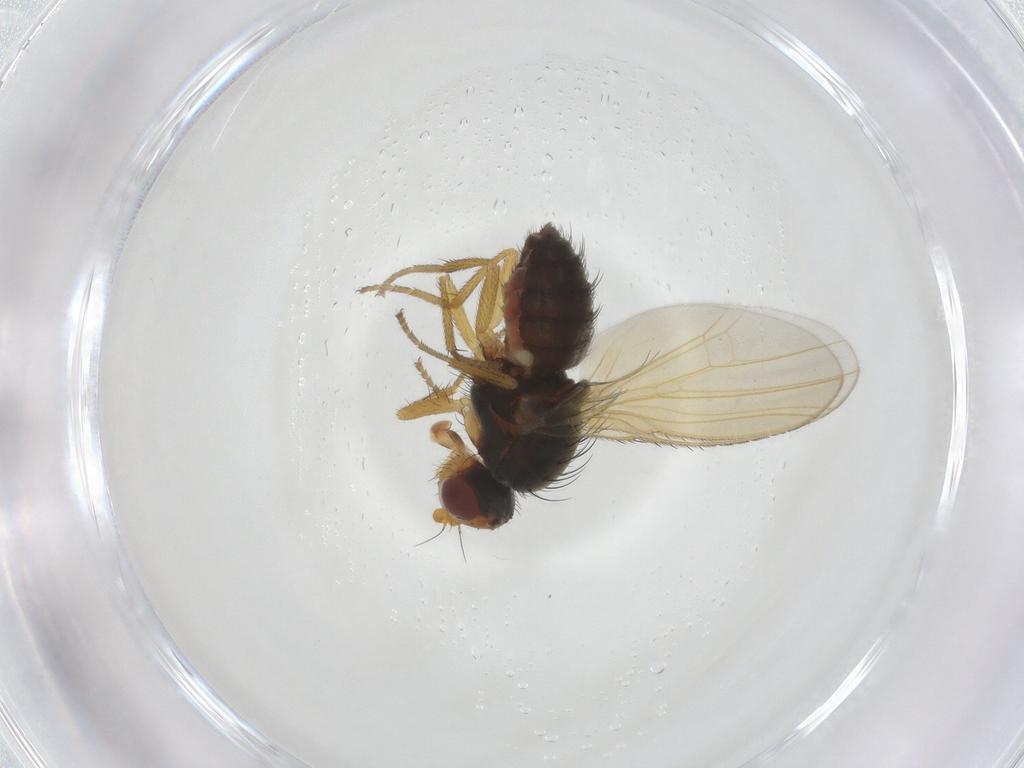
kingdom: Animalia
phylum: Arthropoda
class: Insecta
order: Diptera
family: Heleomyzidae
